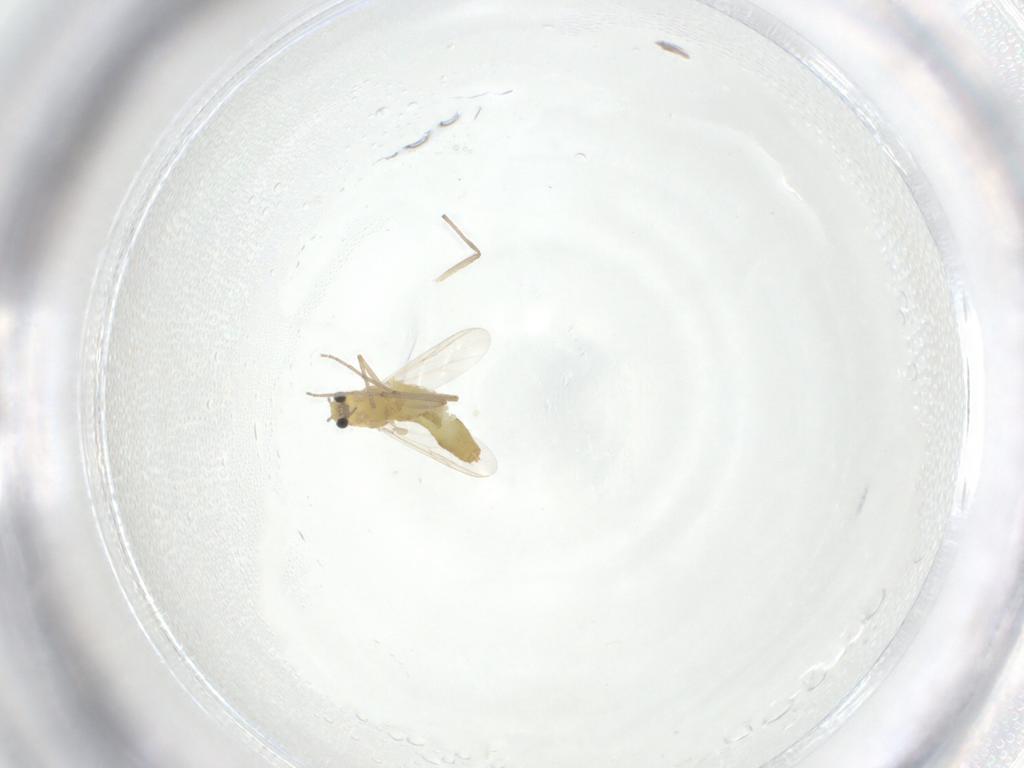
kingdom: Animalia
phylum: Arthropoda
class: Insecta
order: Diptera
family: Chironomidae
